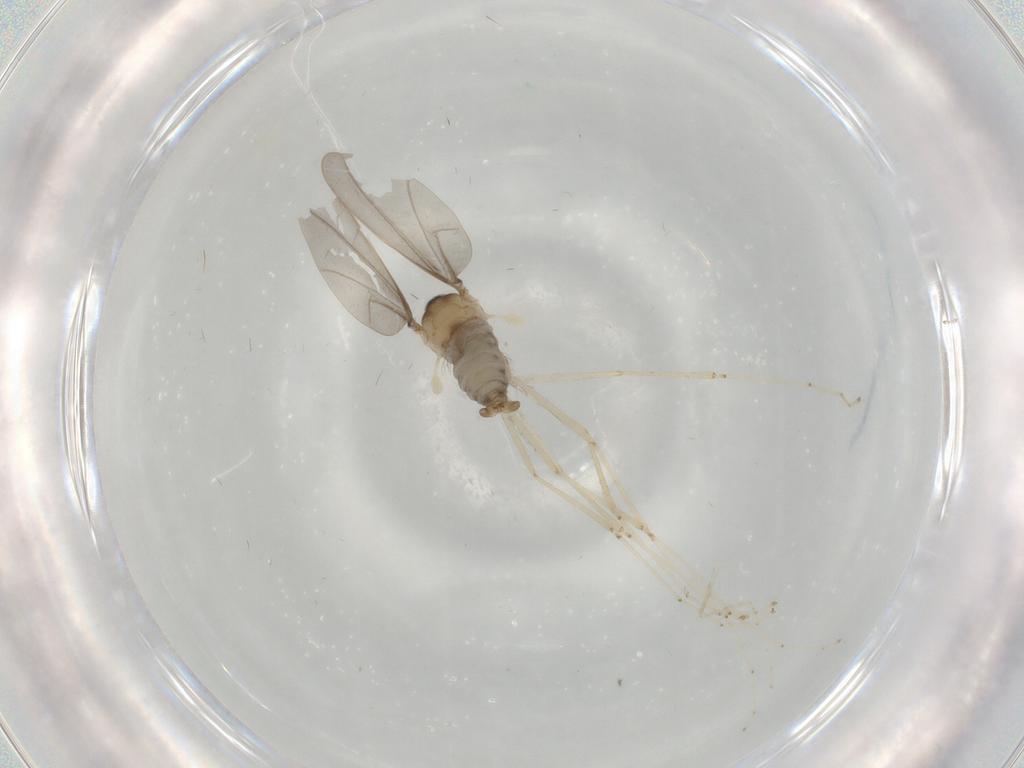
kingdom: Animalia
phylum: Arthropoda
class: Insecta
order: Diptera
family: Cecidomyiidae
